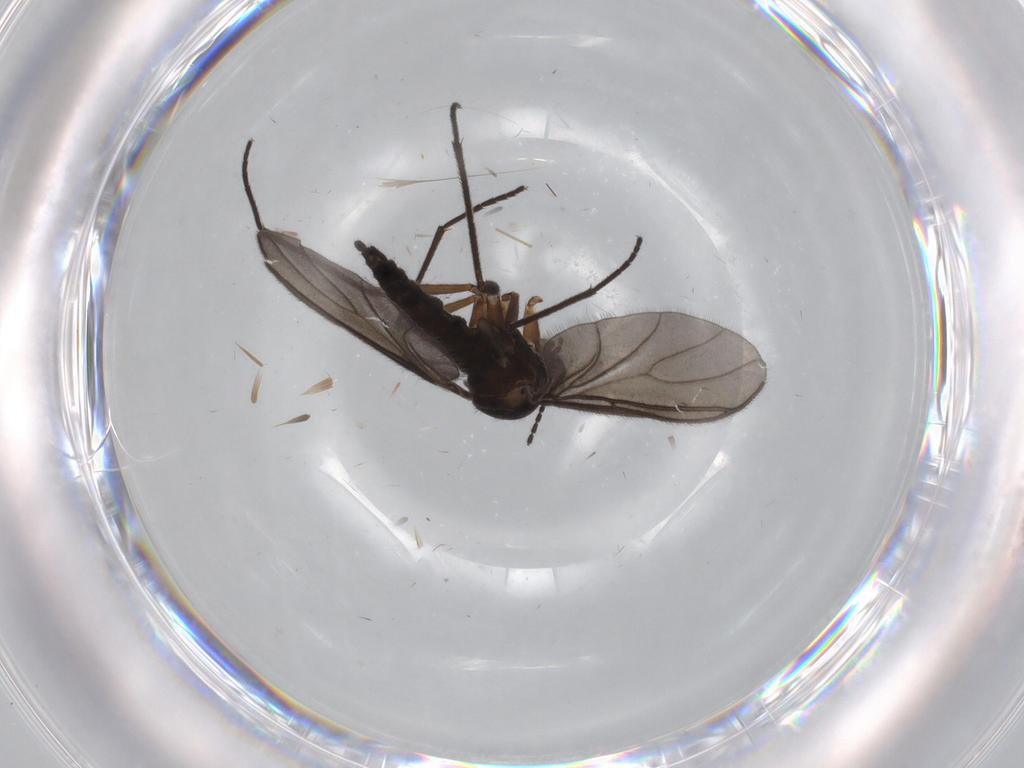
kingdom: Animalia
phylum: Arthropoda
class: Insecta
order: Diptera
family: Sciaridae
